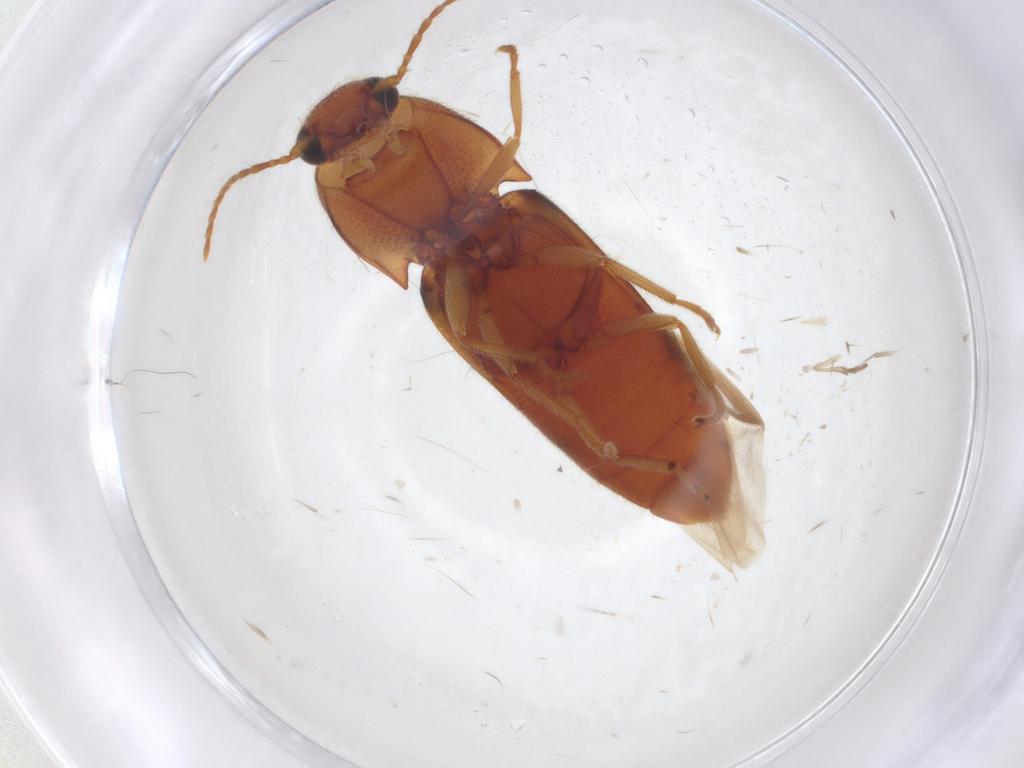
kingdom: Animalia
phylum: Arthropoda
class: Insecta
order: Coleoptera
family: Elateridae
